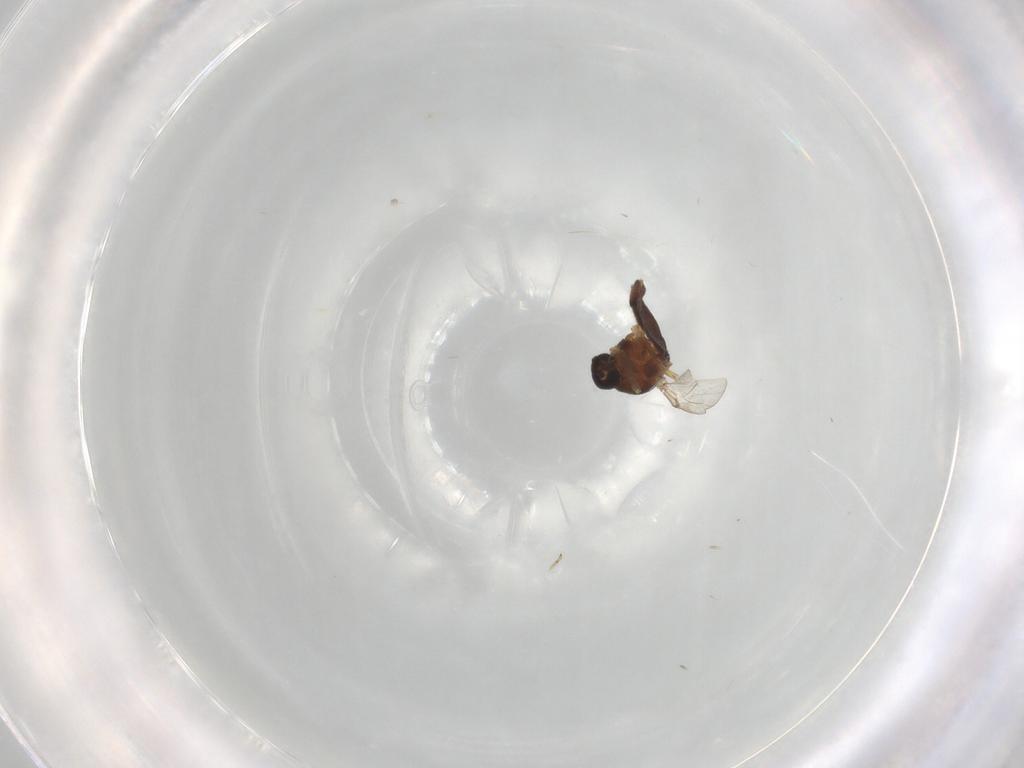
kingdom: Animalia
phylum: Arthropoda
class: Insecta
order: Diptera
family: Ceratopogonidae
